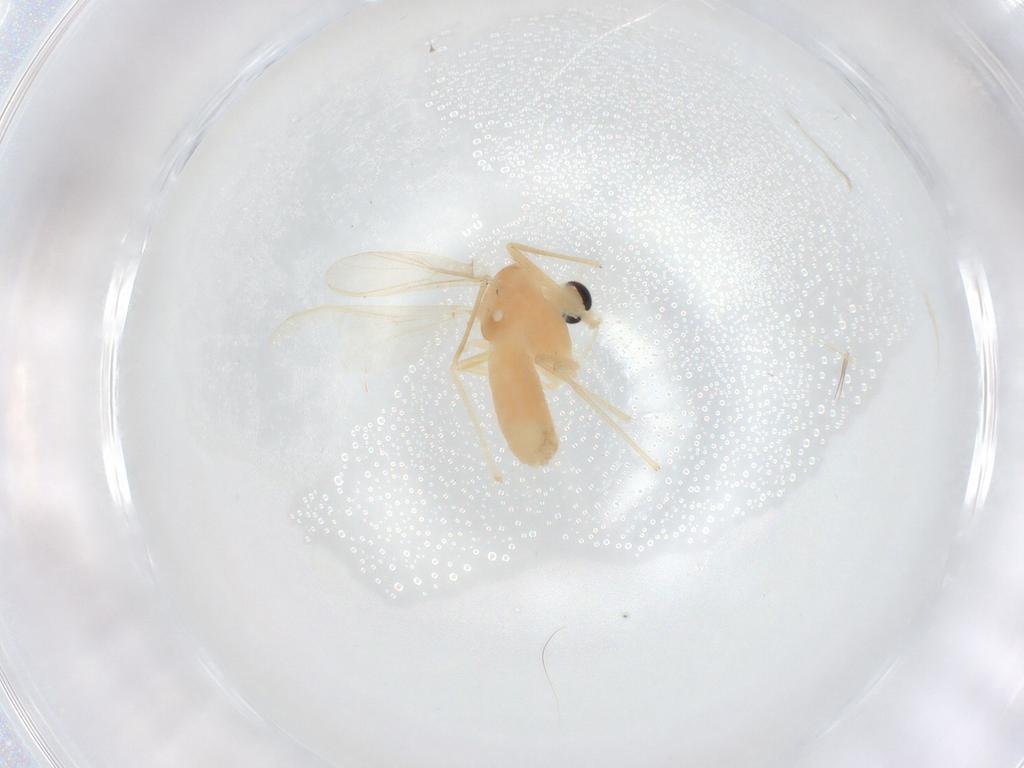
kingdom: Animalia
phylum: Arthropoda
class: Insecta
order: Diptera
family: Chironomidae
